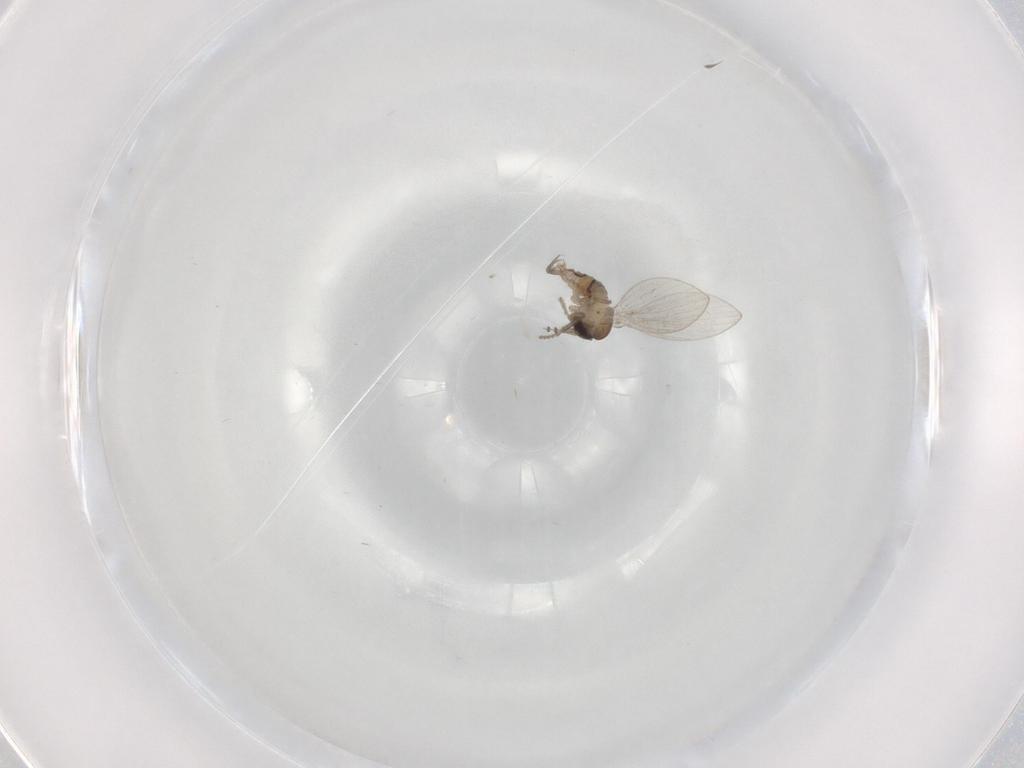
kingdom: Animalia
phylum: Arthropoda
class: Insecta
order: Diptera
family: Psychodidae
